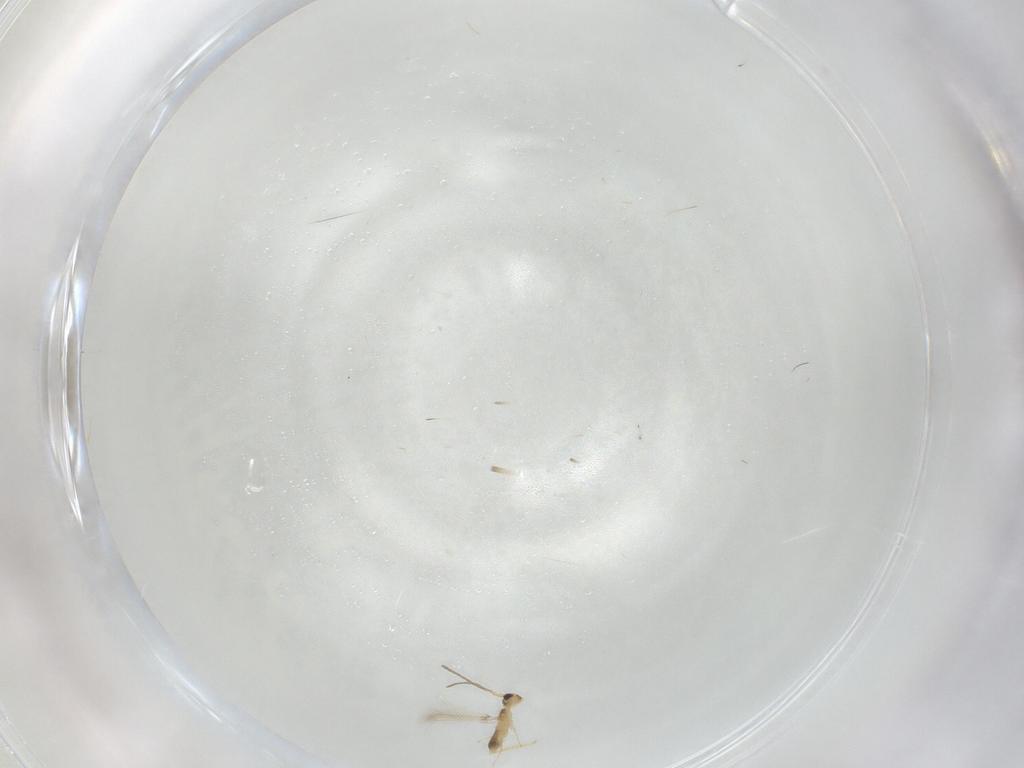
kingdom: Animalia
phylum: Arthropoda
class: Insecta
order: Hymenoptera
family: Mymaridae
